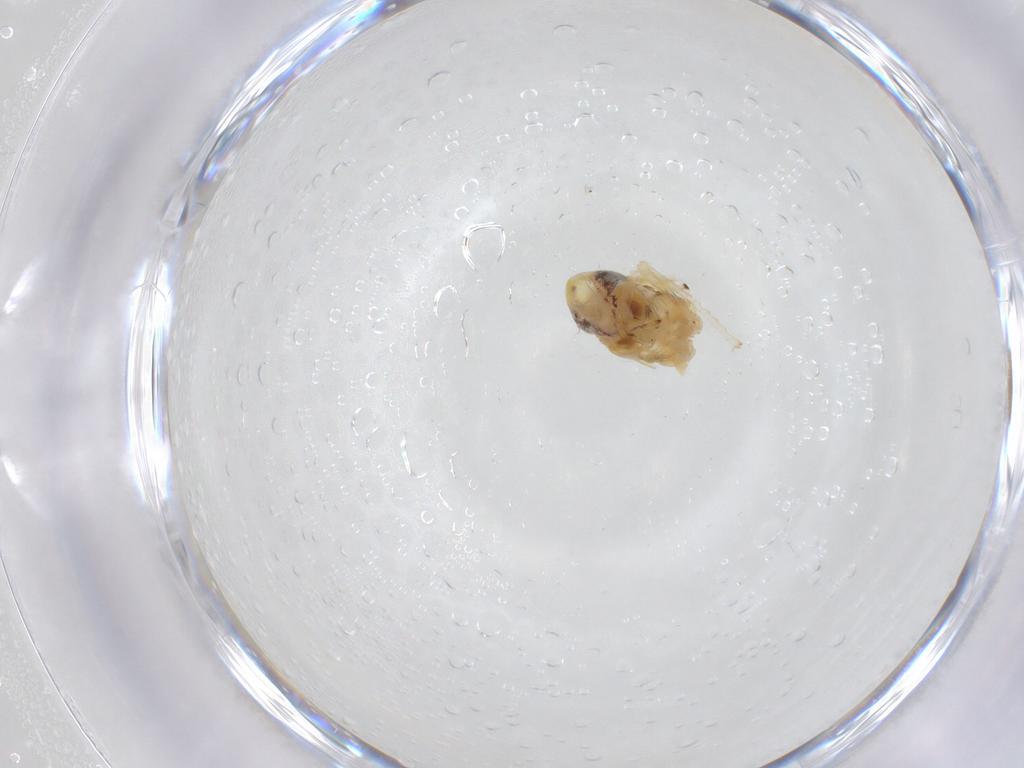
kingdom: Animalia
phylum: Arthropoda
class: Insecta
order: Hemiptera
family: Cicadellidae
